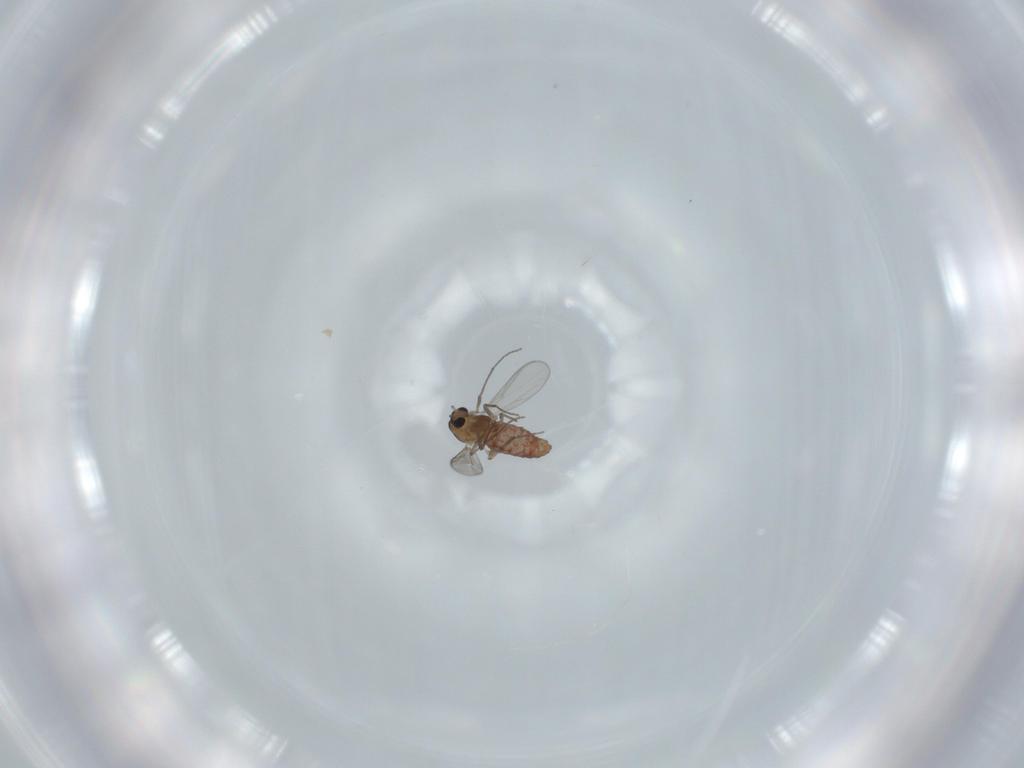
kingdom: Animalia
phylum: Arthropoda
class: Insecta
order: Diptera
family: Chironomidae
